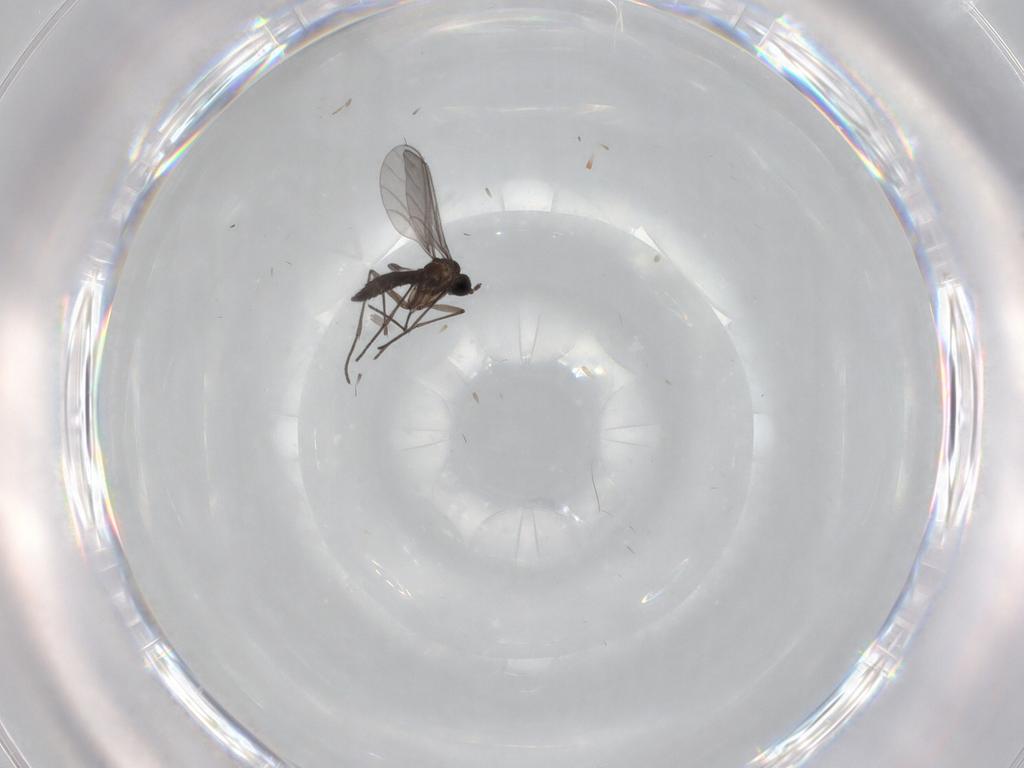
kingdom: Animalia
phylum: Arthropoda
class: Insecta
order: Diptera
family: Cecidomyiidae
